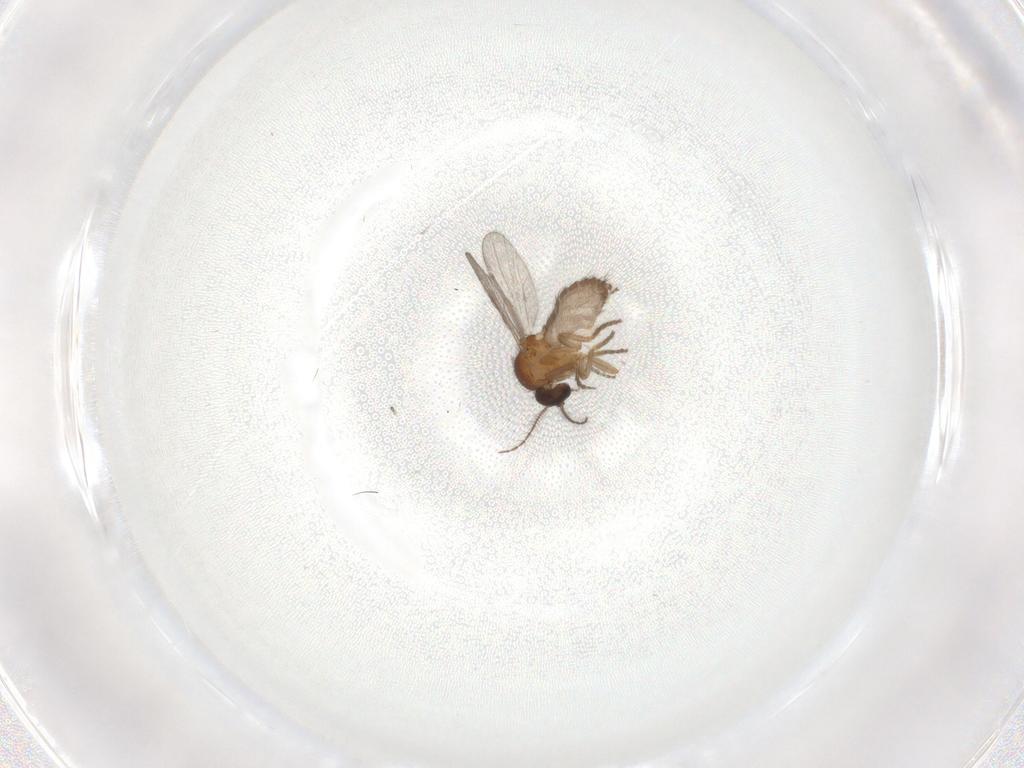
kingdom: Animalia
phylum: Arthropoda
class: Insecta
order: Diptera
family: Ceratopogonidae
